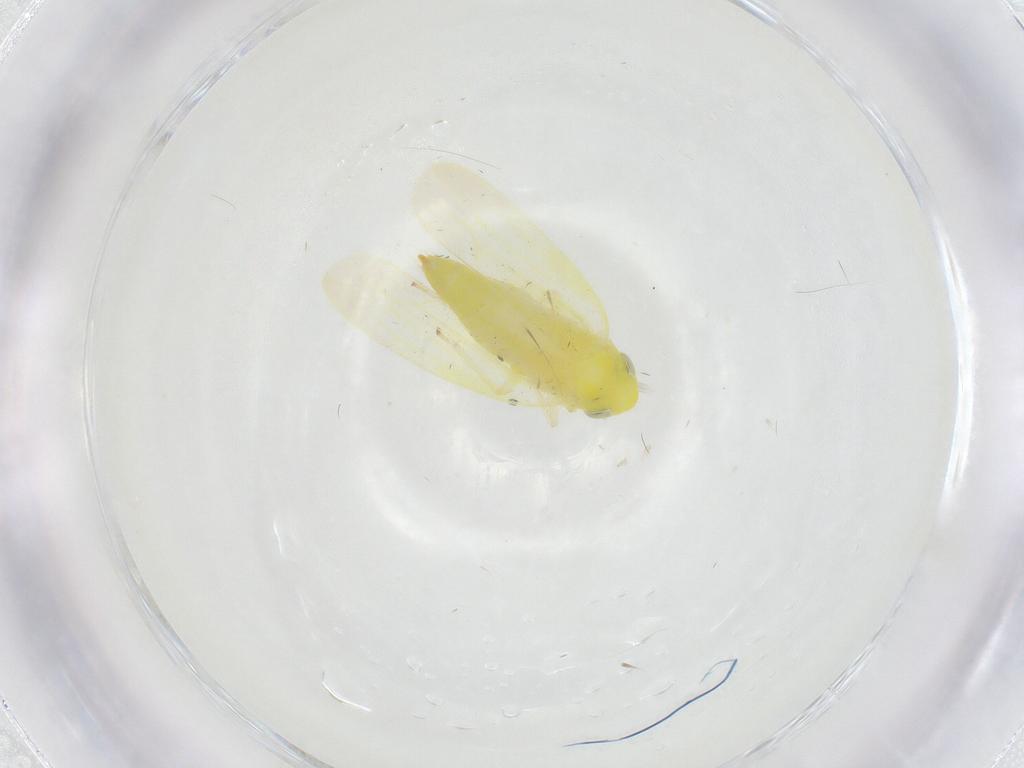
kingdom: Animalia
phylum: Arthropoda
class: Insecta
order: Hemiptera
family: Cicadellidae
